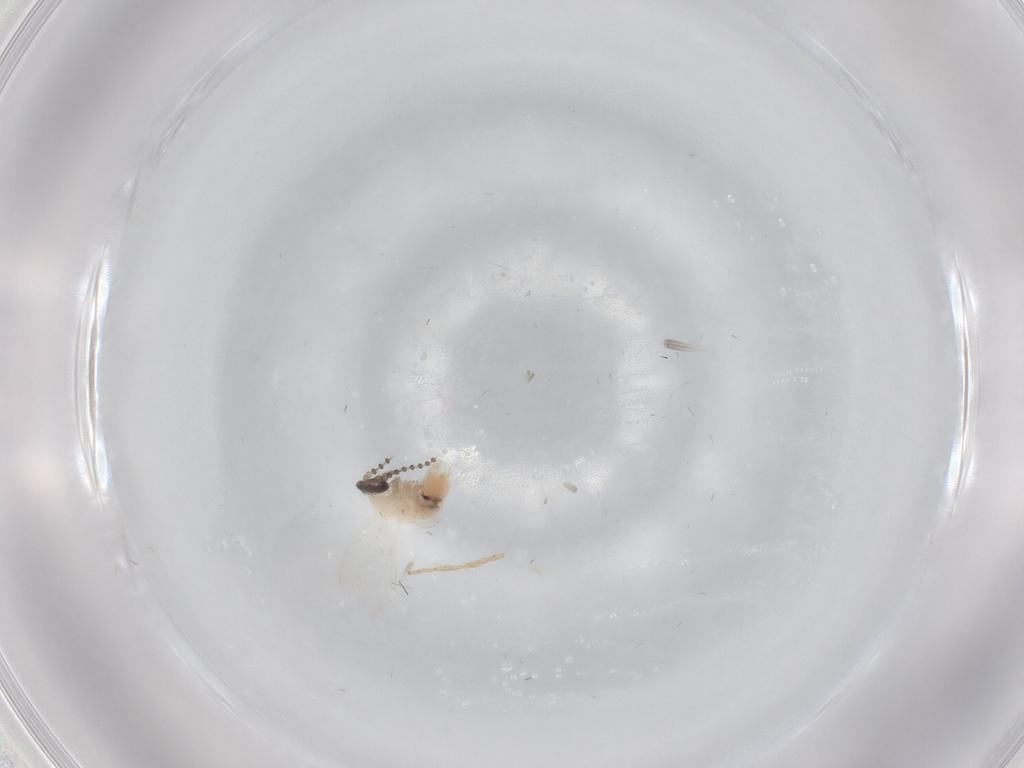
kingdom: Animalia
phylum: Arthropoda
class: Insecta
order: Diptera
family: Psychodidae
